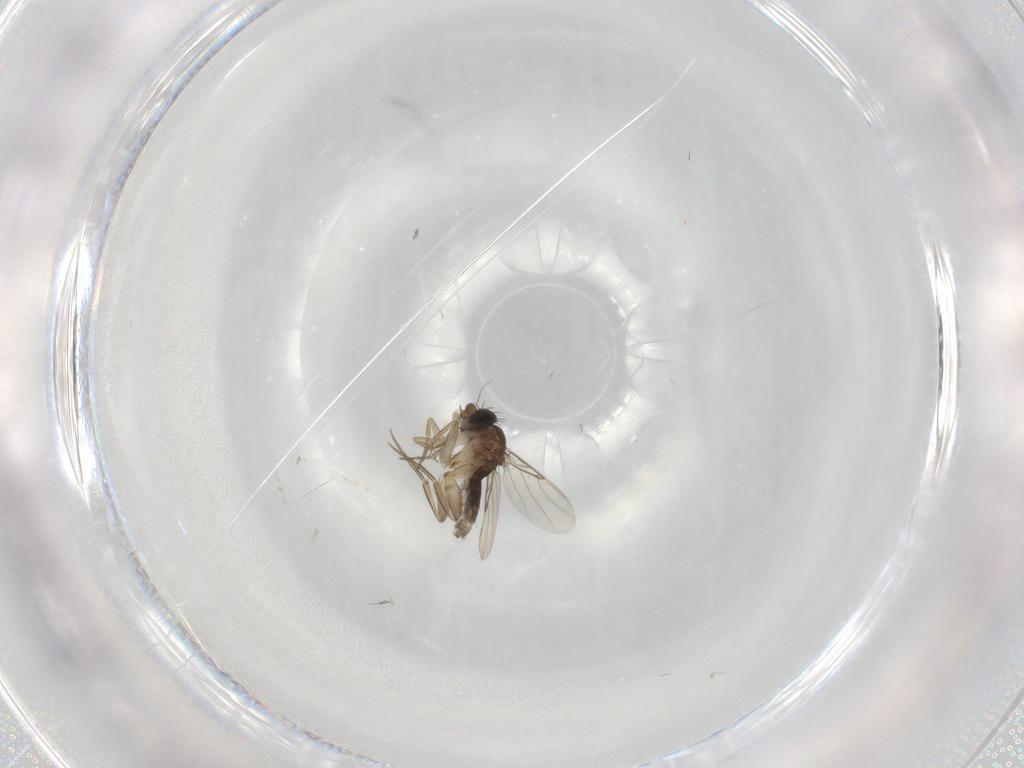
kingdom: Animalia
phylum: Arthropoda
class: Insecta
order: Diptera
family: Phoridae
